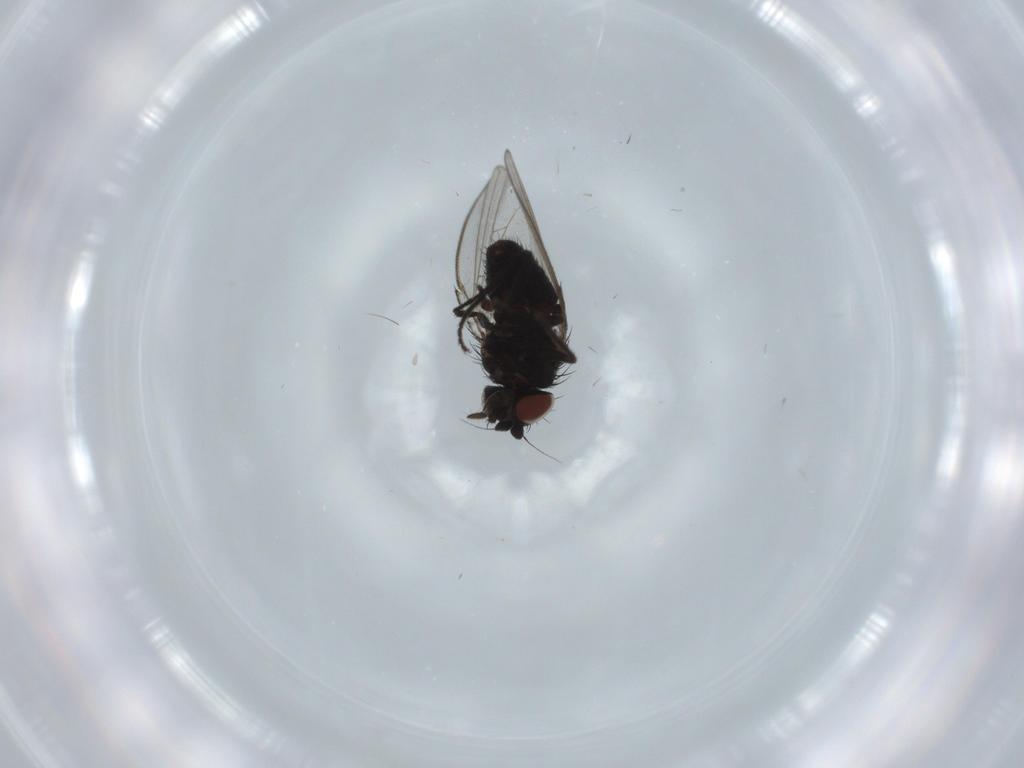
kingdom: Animalia
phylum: Arthropoda
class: Insecta
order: Diptera
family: Milichiidae
